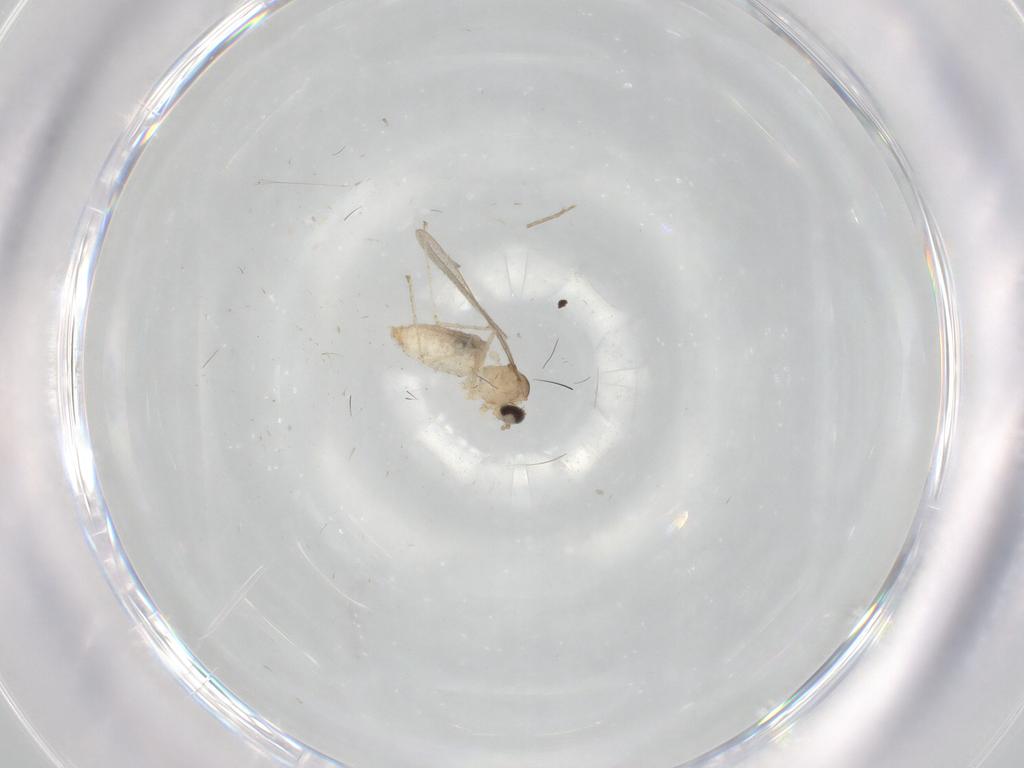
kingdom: Animalia
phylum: Arthropoda
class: Insecta
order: Diptera
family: Cecidomyiidae
